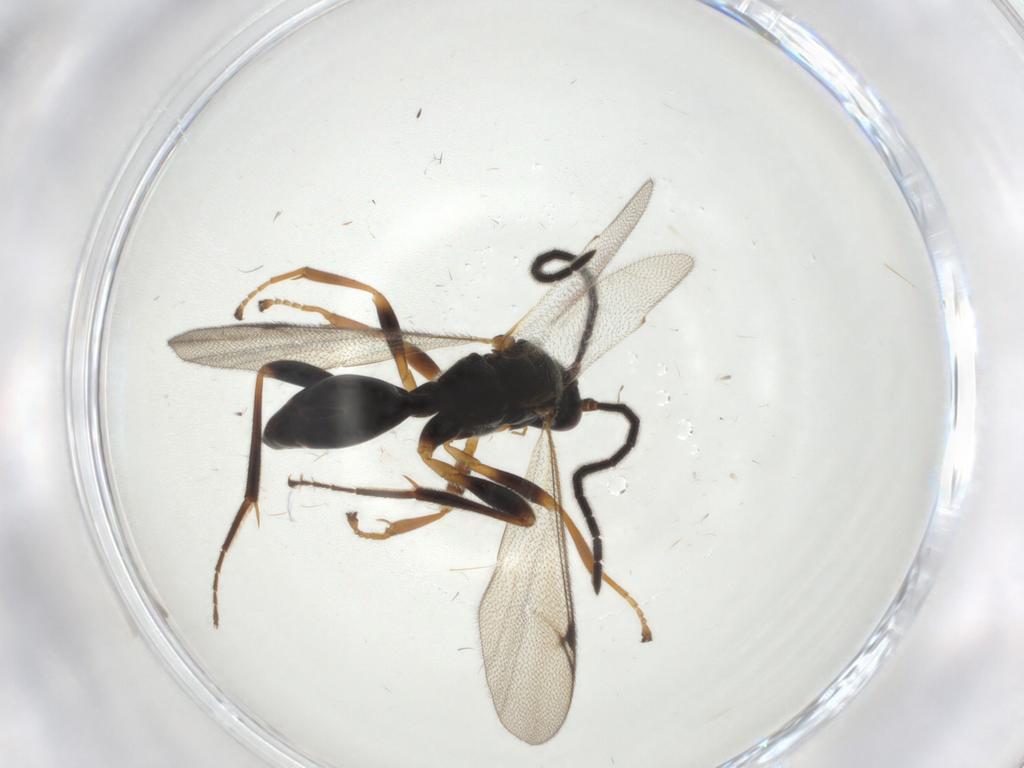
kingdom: Animalia
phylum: Arthropoda
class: Insecta
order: Hymenoptera
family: Proctotrupidae
